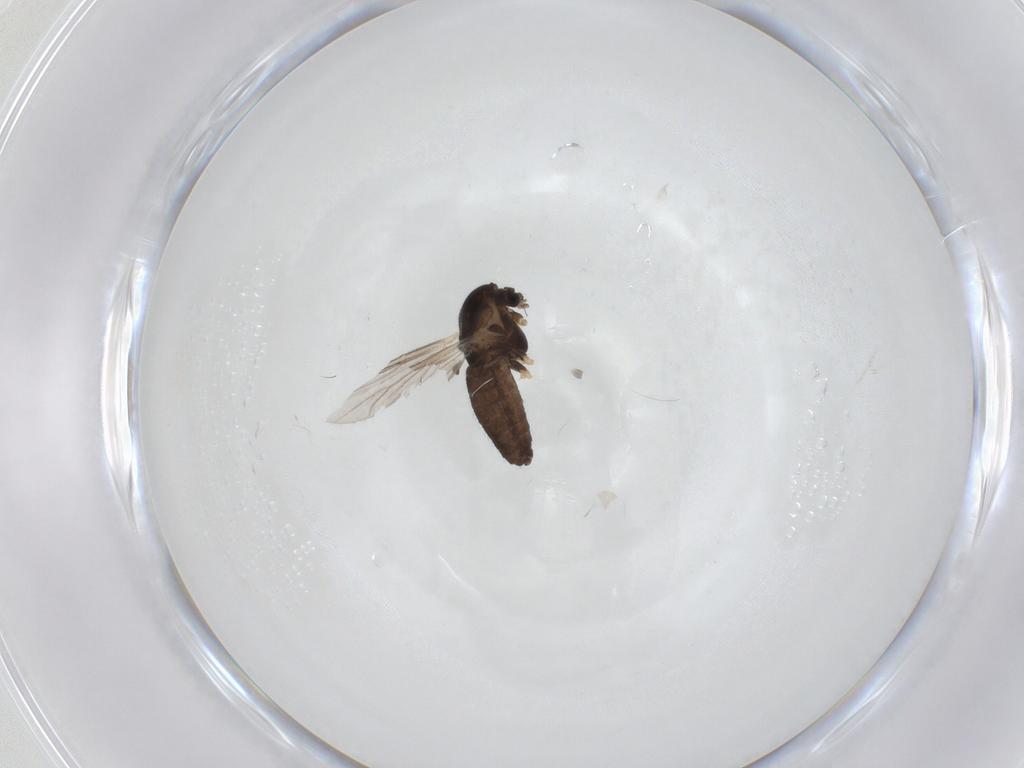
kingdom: Animalia
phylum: Arthropoda
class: Insecta
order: Diptera
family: Chironomidae
